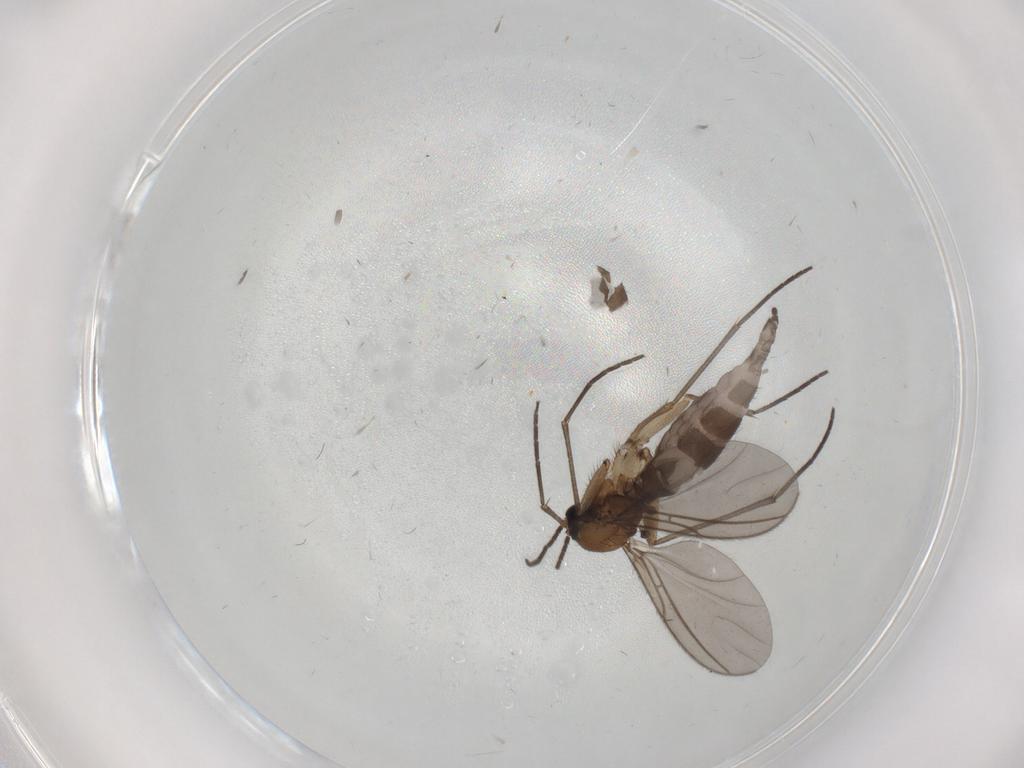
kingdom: Animalia
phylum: Arthropoda
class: Insecta
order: Diptera
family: Sciaridae
